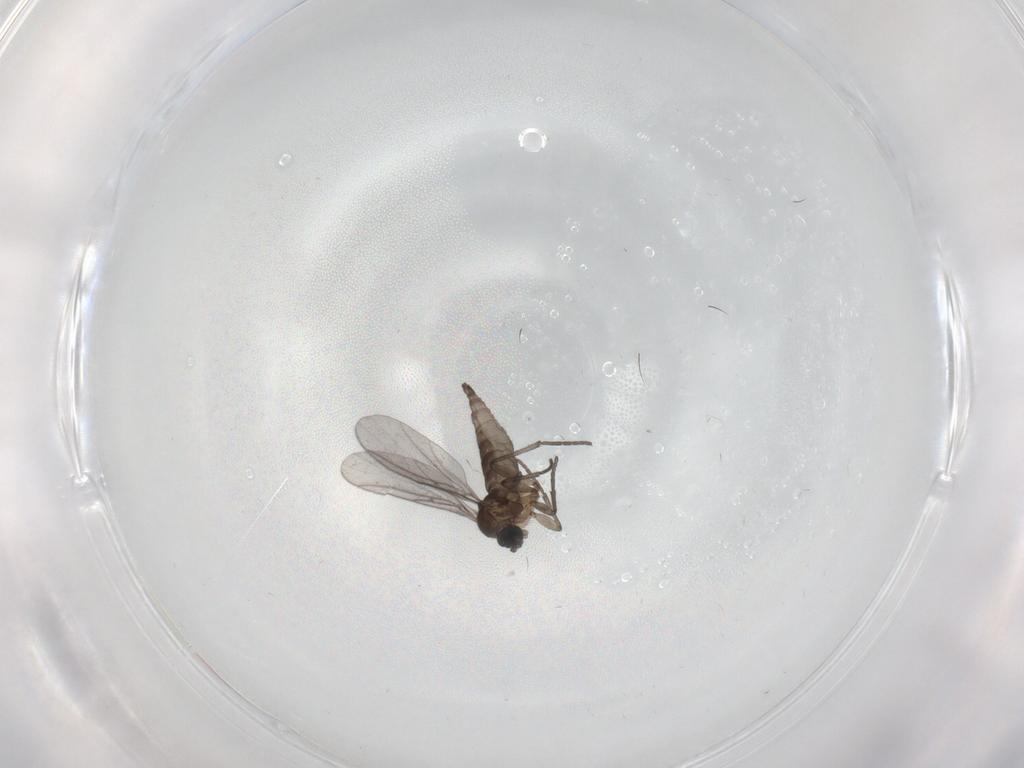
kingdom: Animalia
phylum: Arthropoda
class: Insecta
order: Diptera
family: Sciaridae
